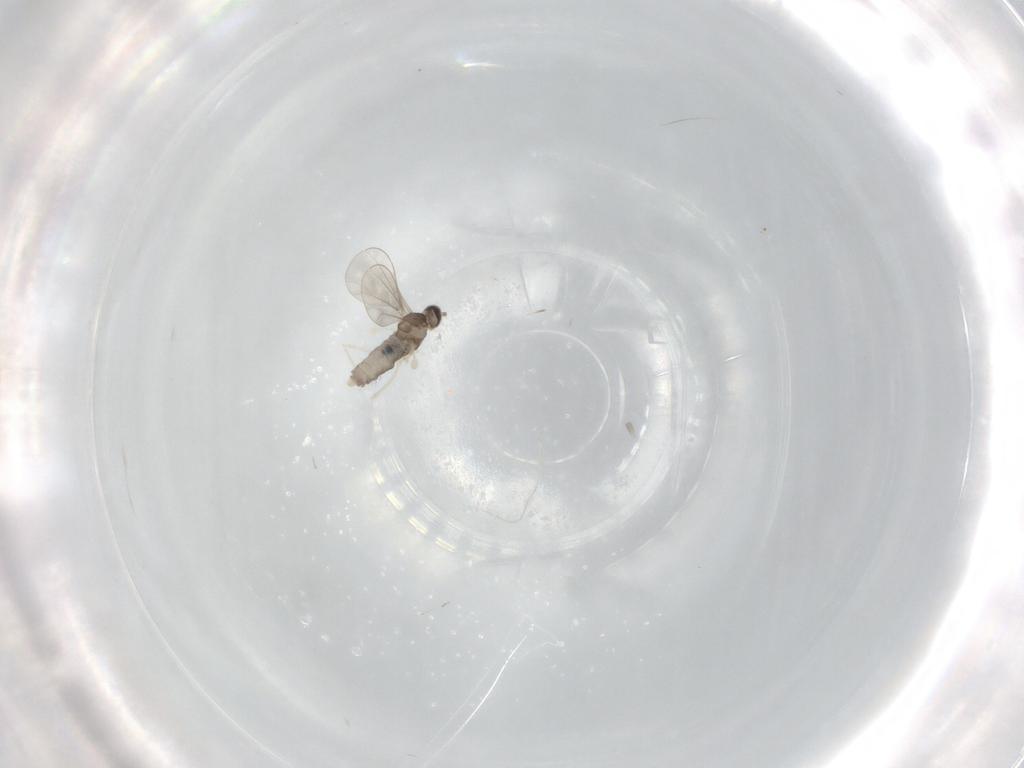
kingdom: Animalia
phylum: Arthropoda
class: Insecta
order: Diptera
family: Cecidomyiidae
